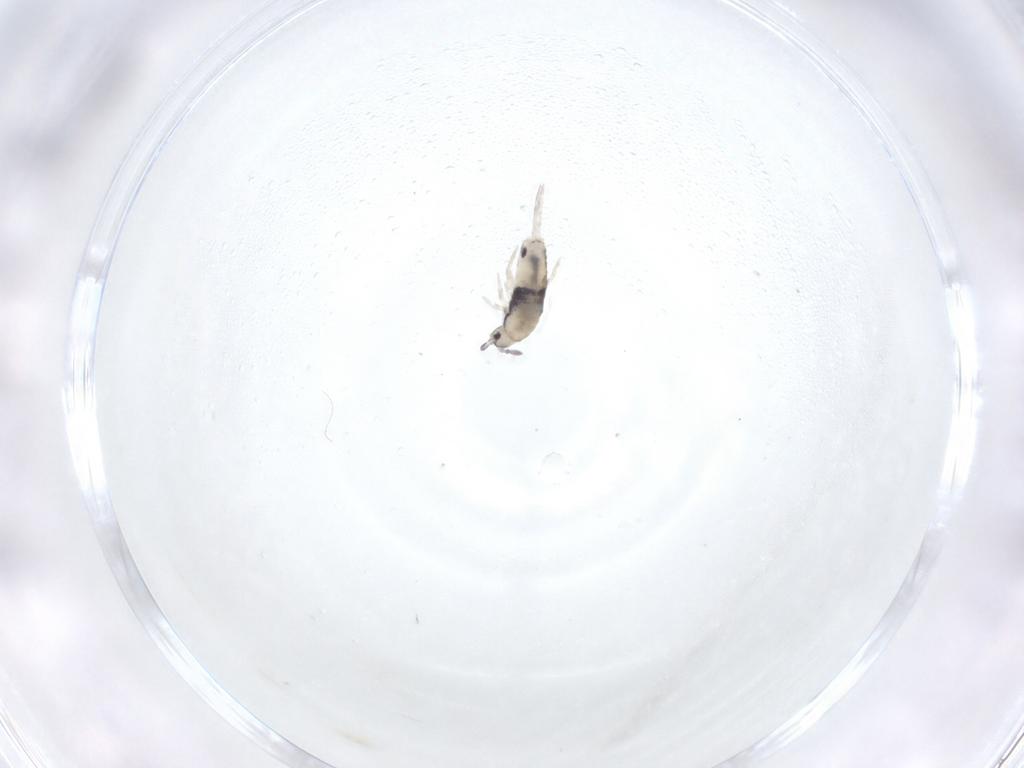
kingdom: Animalia
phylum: Arthropoda
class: Collembola
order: Entomobryomorpha
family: Entomobryidae
